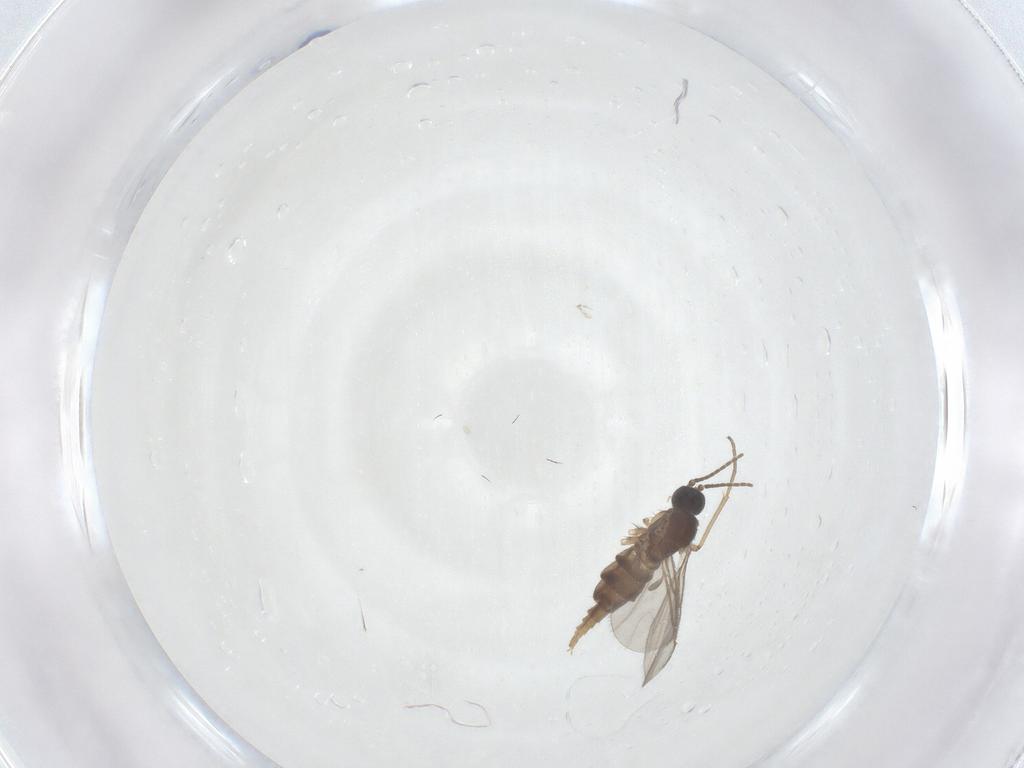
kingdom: Animalia
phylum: Arthropoda
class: Insecta
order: Diptera
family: Sciaridae
